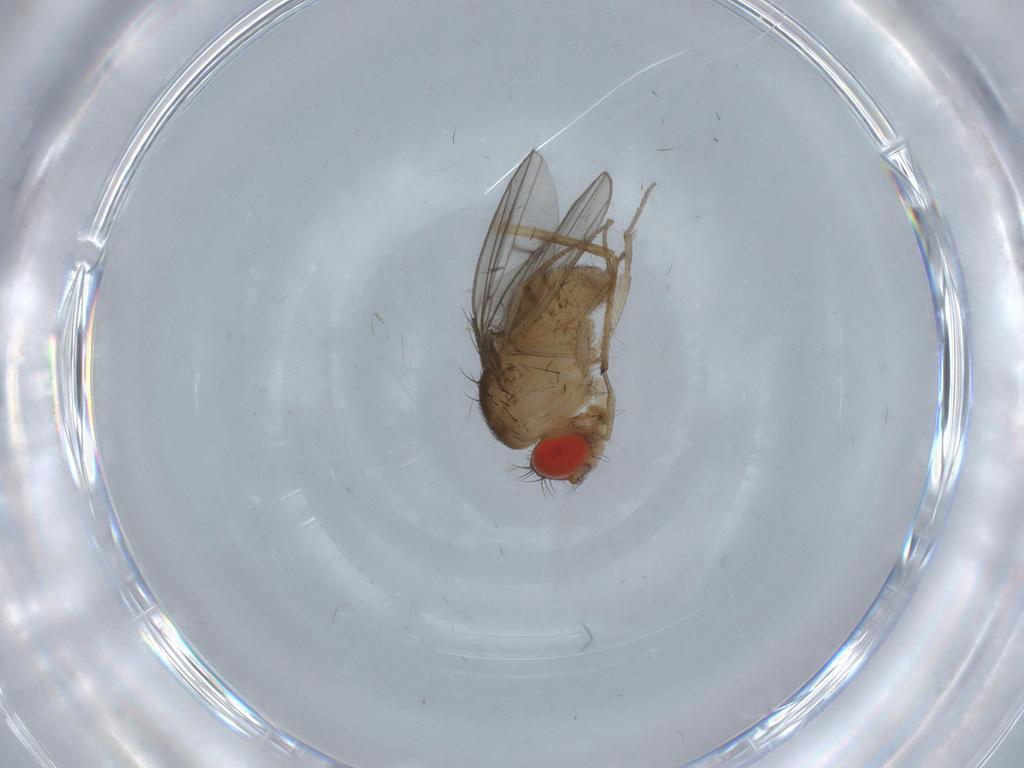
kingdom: Animalia
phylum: Arthropoda
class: Insecta
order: Diptera
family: Drosophilidae
